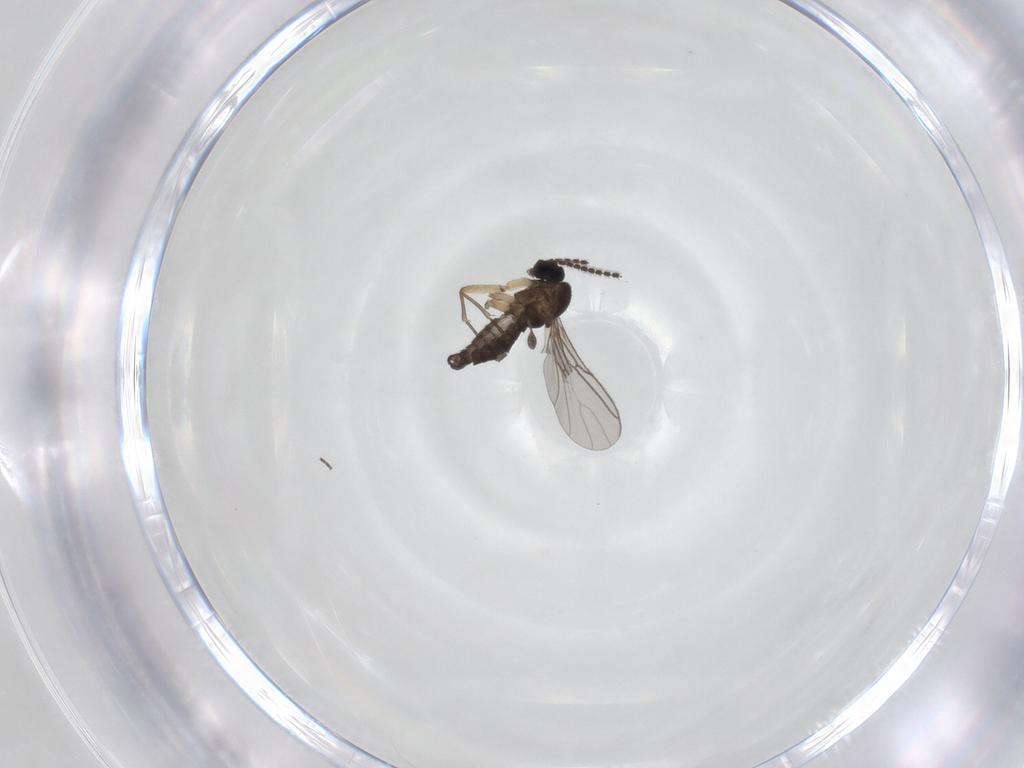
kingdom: Animalia
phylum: Arthropoda
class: Insecta
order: Diptera
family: Sciaridae
